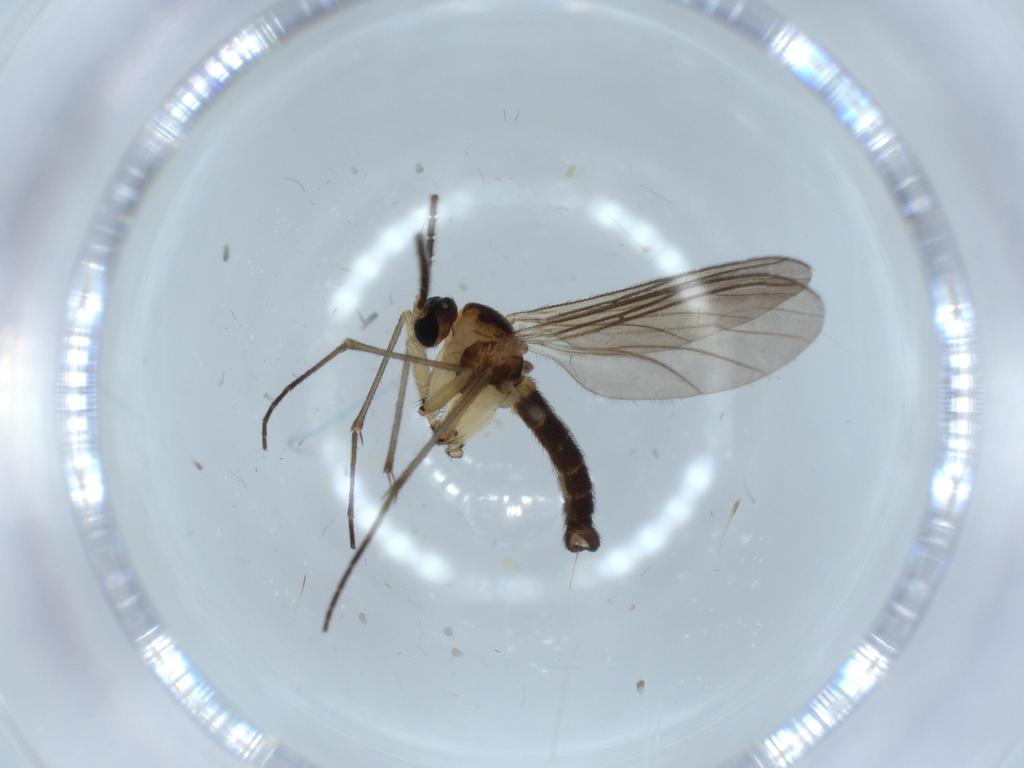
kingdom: Animalia
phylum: Arthropoda
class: Insecta
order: Diptera
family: Sciaridae
